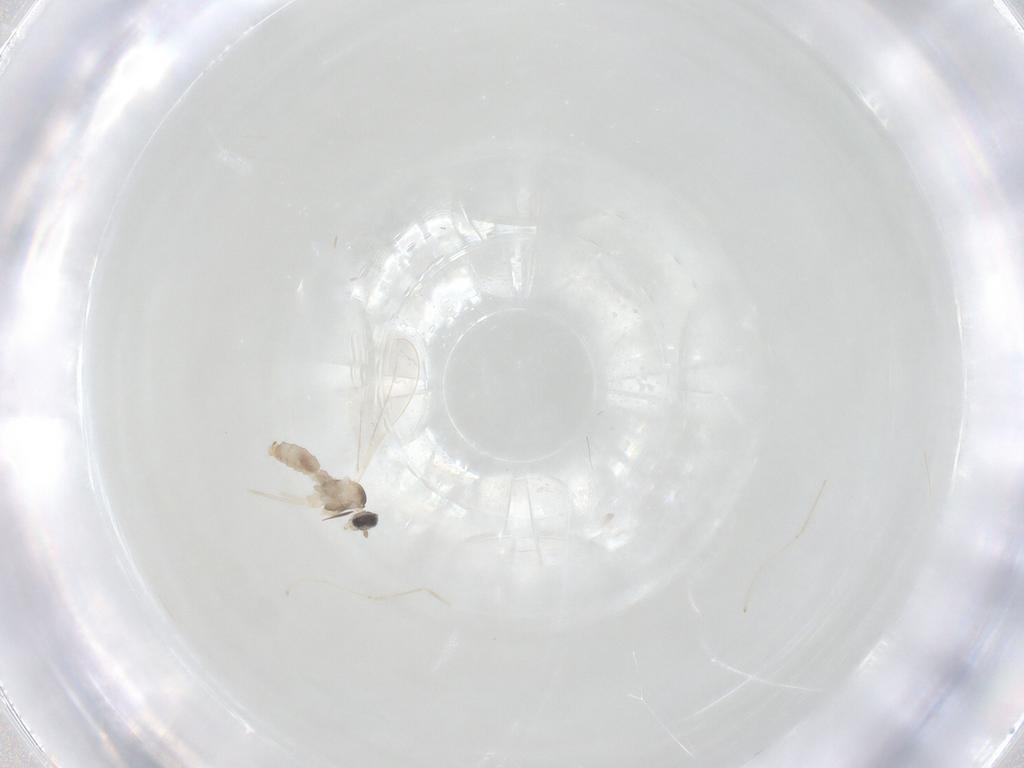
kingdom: Animalia
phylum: Arthropoda
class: Insecta
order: Diptera
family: Cecidomyiidae
